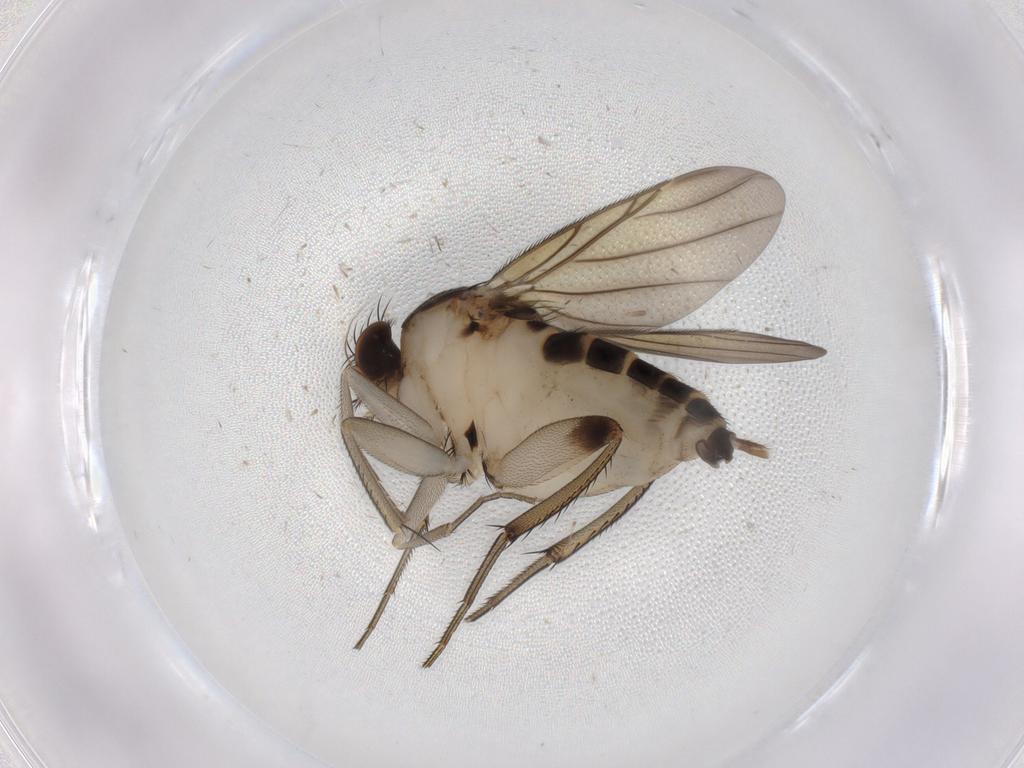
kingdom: Animalia
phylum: Arthropoda
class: Insecta
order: Diptera
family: Phoridae
